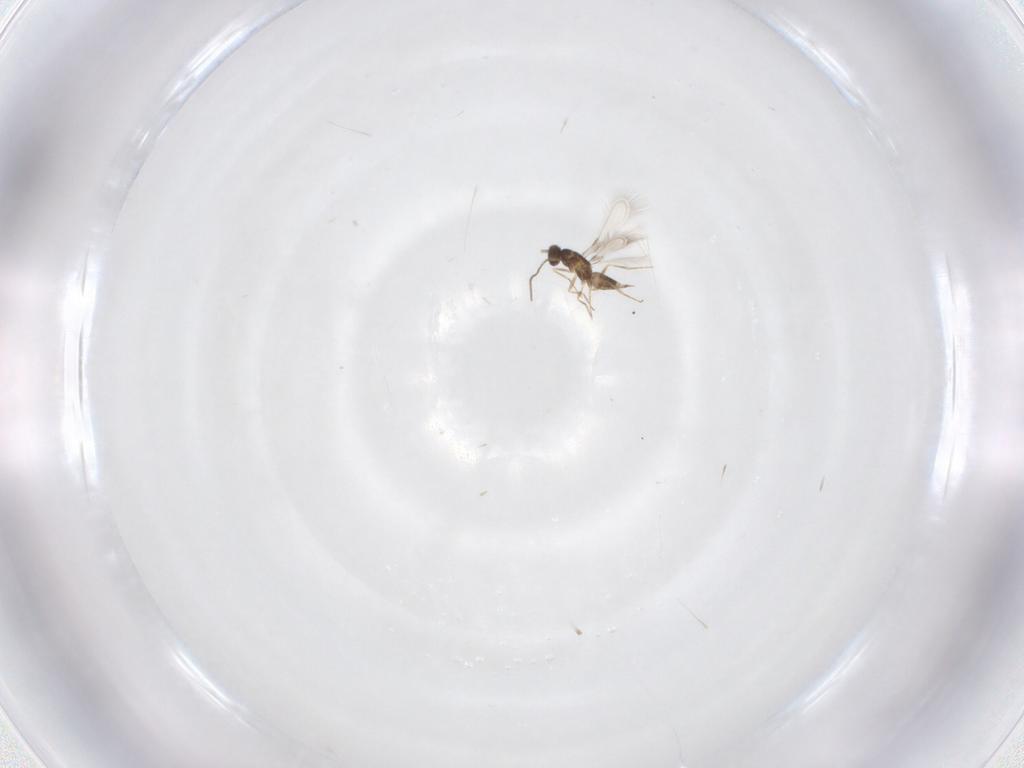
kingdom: Animalia
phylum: Arthropoda
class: Insecta
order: Hymenoptera
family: Mymaridae
